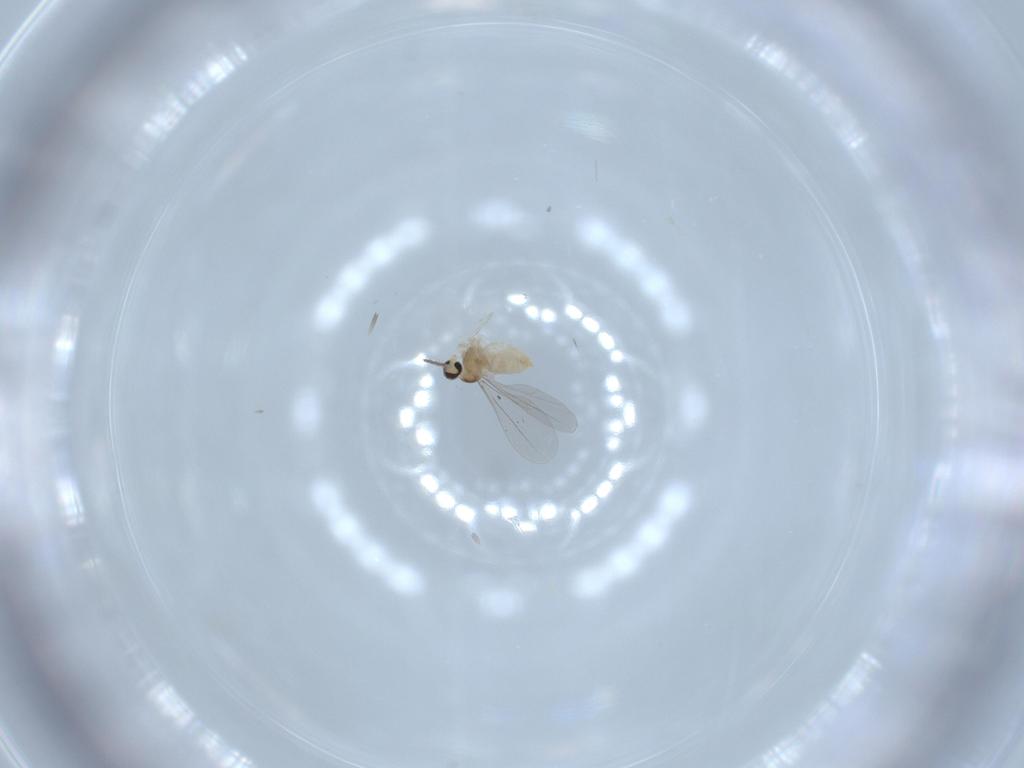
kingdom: Animalia
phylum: Arthropoda
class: Insecta
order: Diptera
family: Cecidomyiidae
